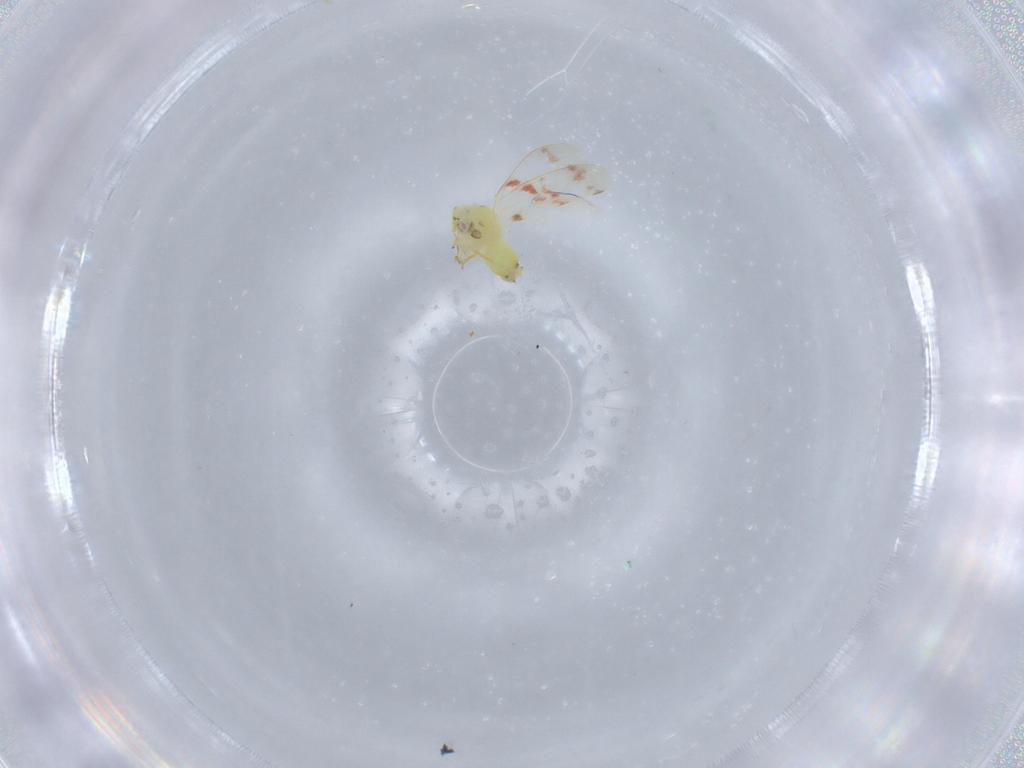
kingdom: Animalia
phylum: Arthropoda
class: Insecta
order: Hemiptera
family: Aleyrodidae
